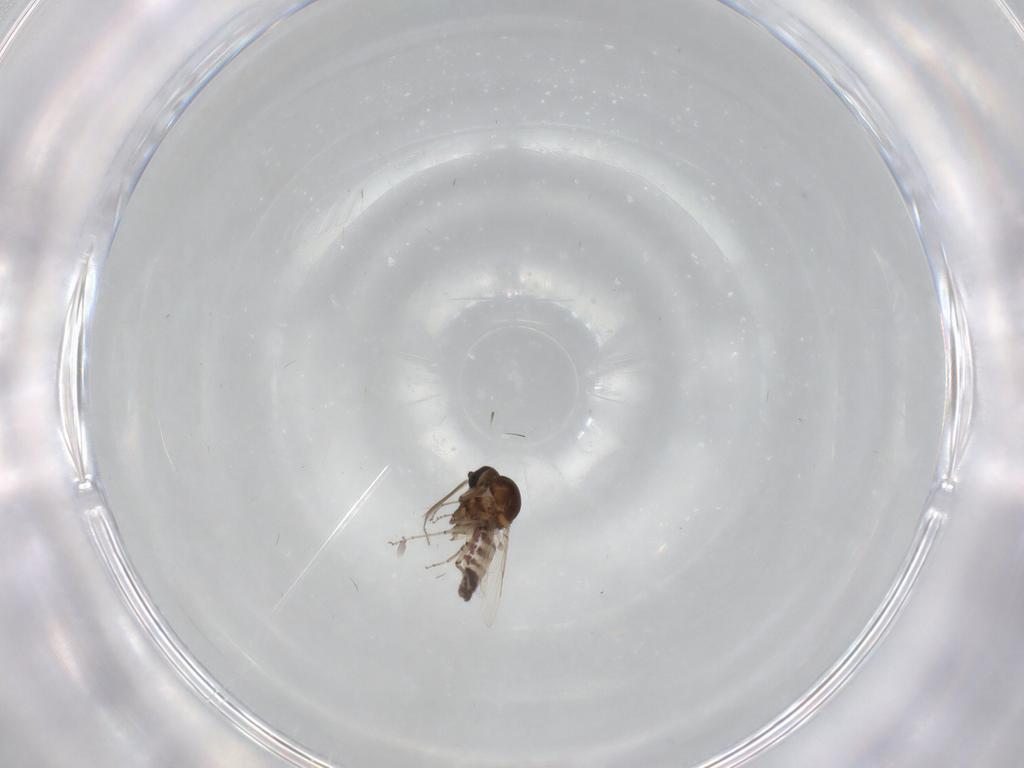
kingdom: Animalia
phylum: Arthropoda
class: Insecta
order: Diptera
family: Ceratopogonidae
